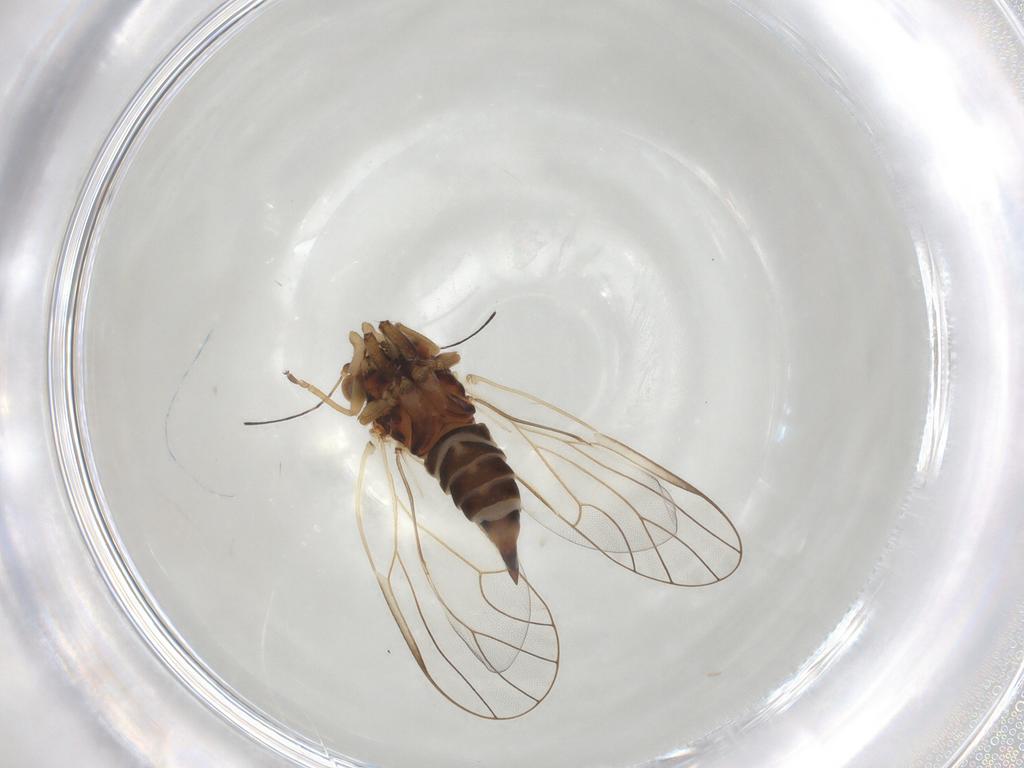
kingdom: Animalia
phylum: Arthropoda
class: Insecta
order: Hemiptera
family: Psyllidae
